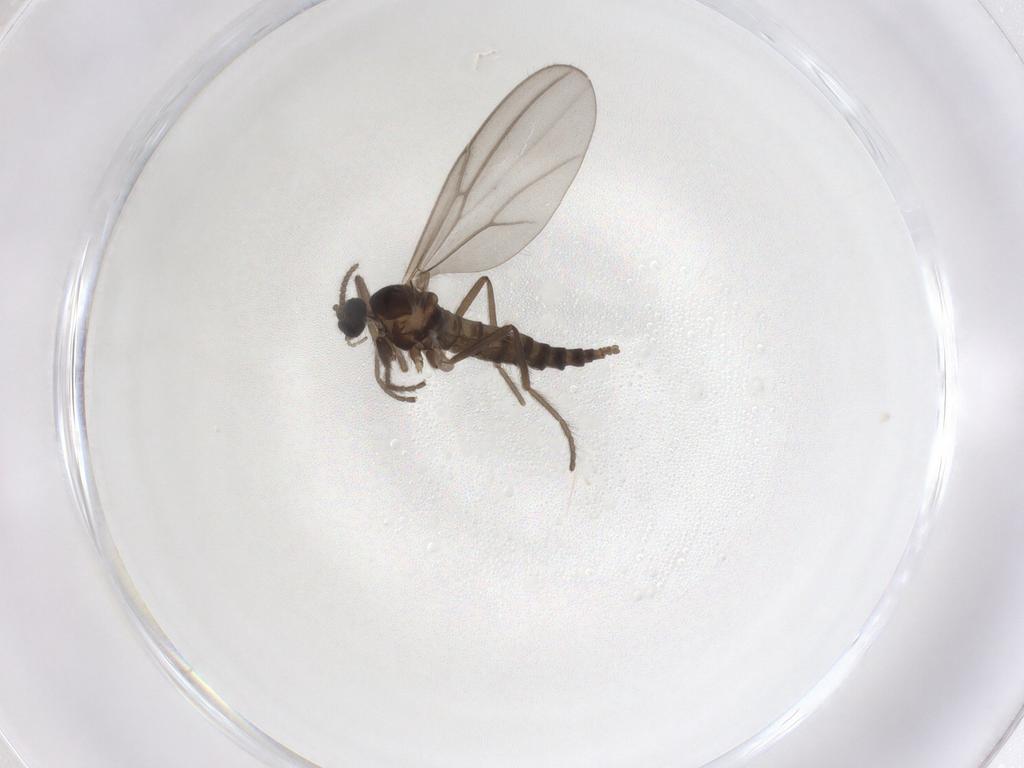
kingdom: Animalia
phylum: Arthropoda
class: Insecta
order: Diptera
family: Cecidomyiidae
